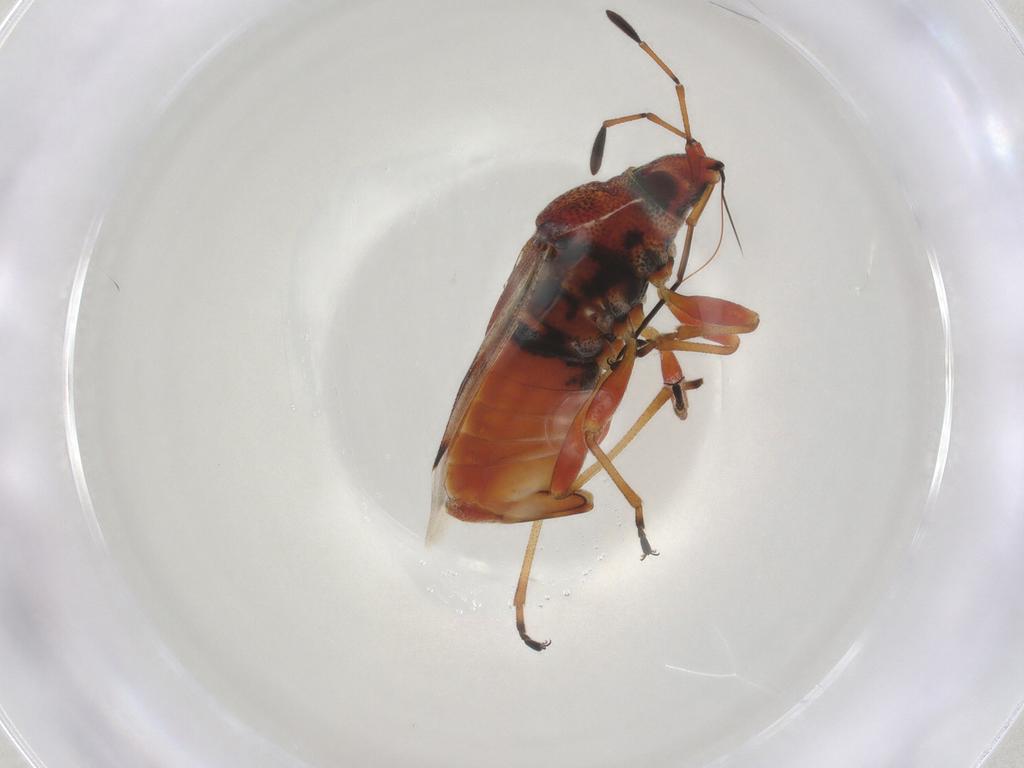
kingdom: Animalia
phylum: Arthropoda
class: Insecta
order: Hemiptera
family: Lygaeidae
